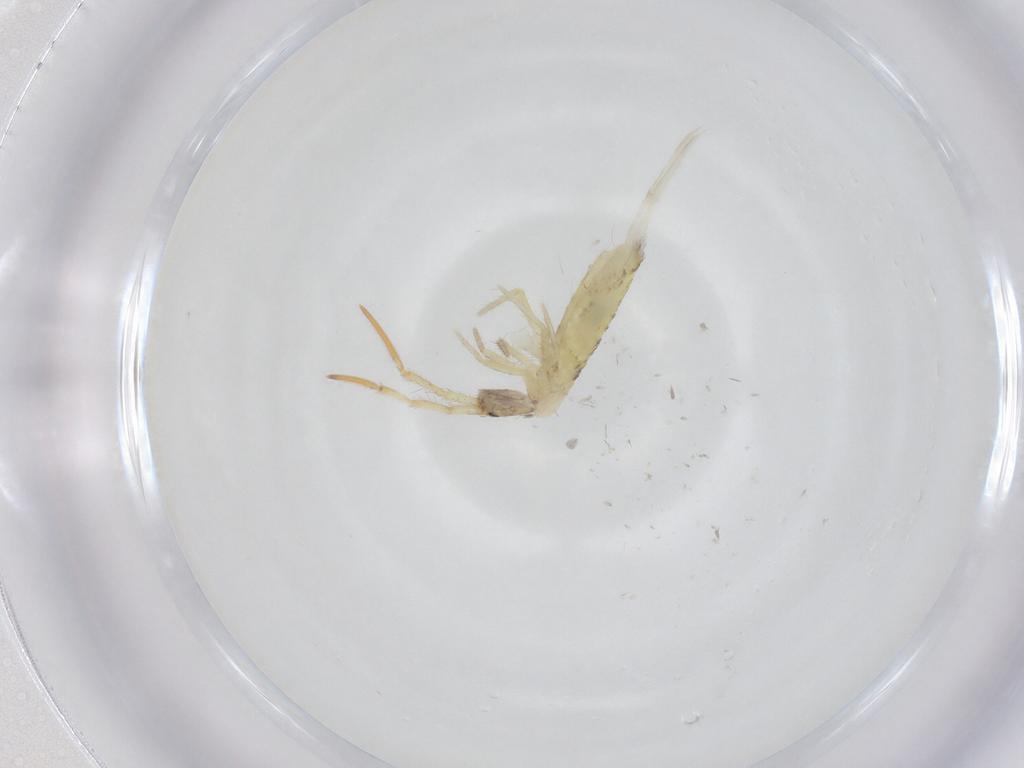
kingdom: Animalia
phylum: Arthropoda
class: Collembola
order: Entomobryomorpha
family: Entomobryidae
